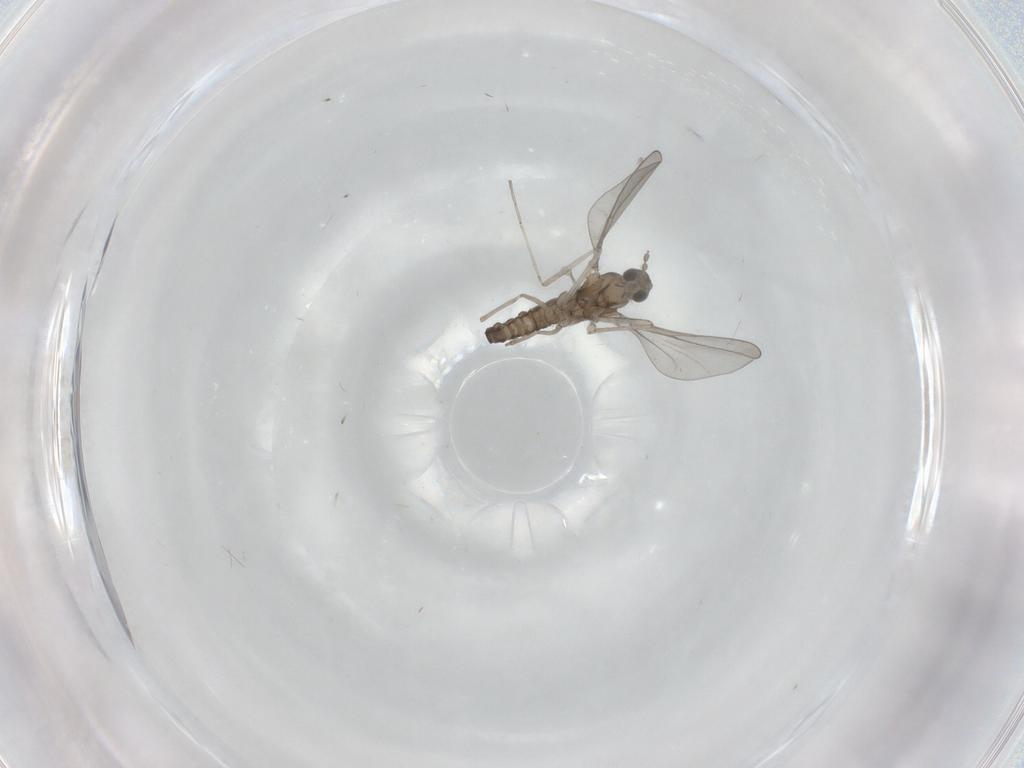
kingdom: Animalia
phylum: Arthropoda
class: Insecta
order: Diptera
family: Cecidomyiidae
